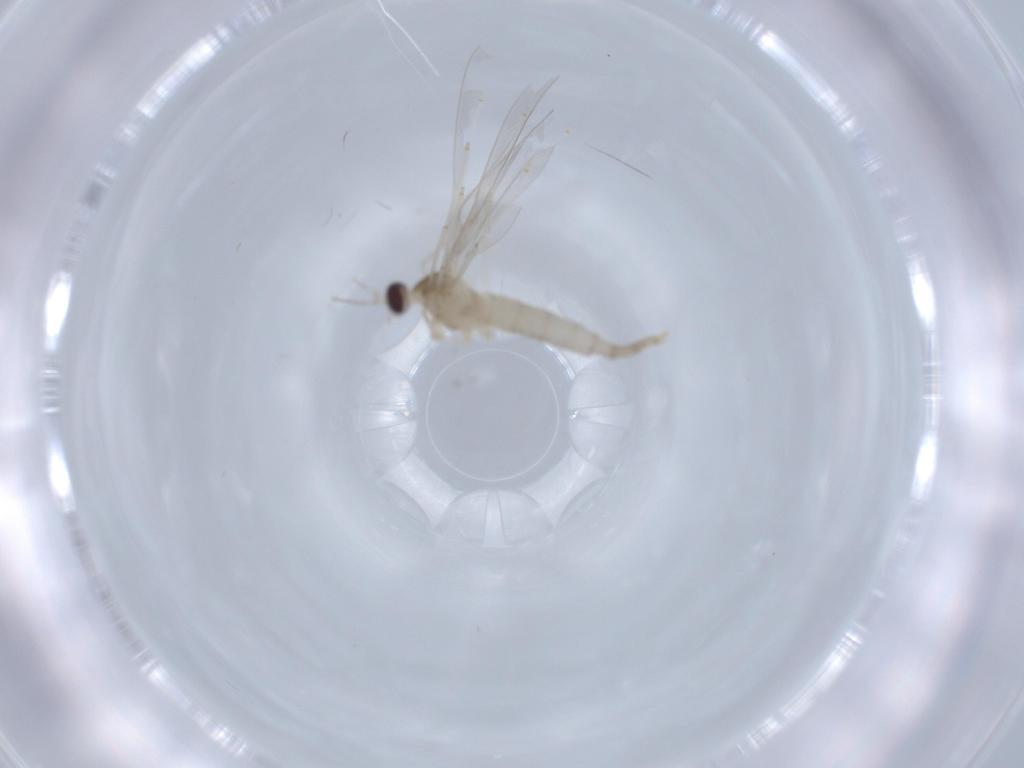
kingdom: Animalia
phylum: Arthropoda
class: Insecta
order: Diptera
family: Cecidomyiidae
